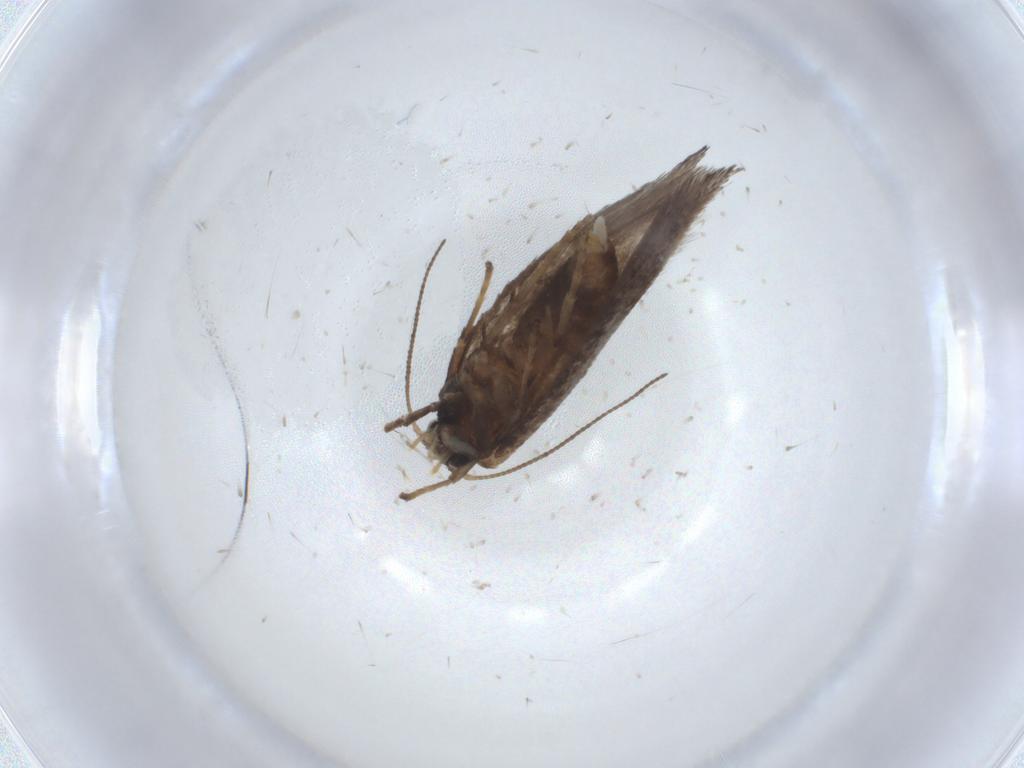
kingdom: Animalia
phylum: Arthropoda
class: Insecta
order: Lepidoptera
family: Nepticulidae
